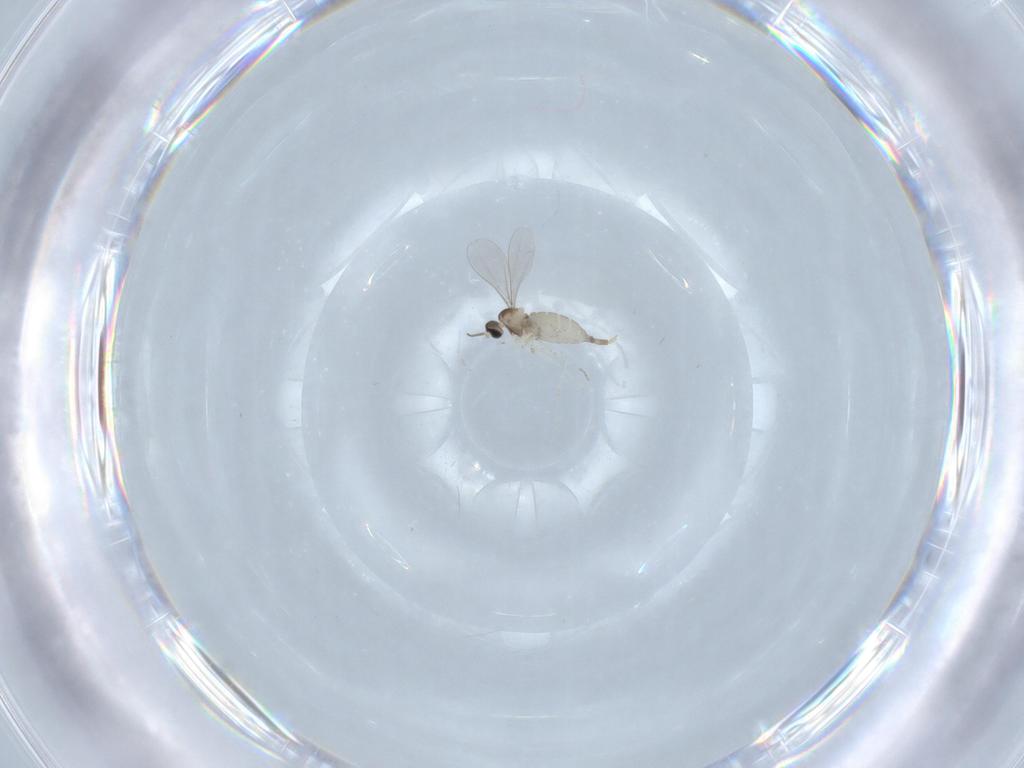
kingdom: Animalia
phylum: Arthropoda
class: Insecta
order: Diptera
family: Cecidomyiidae
